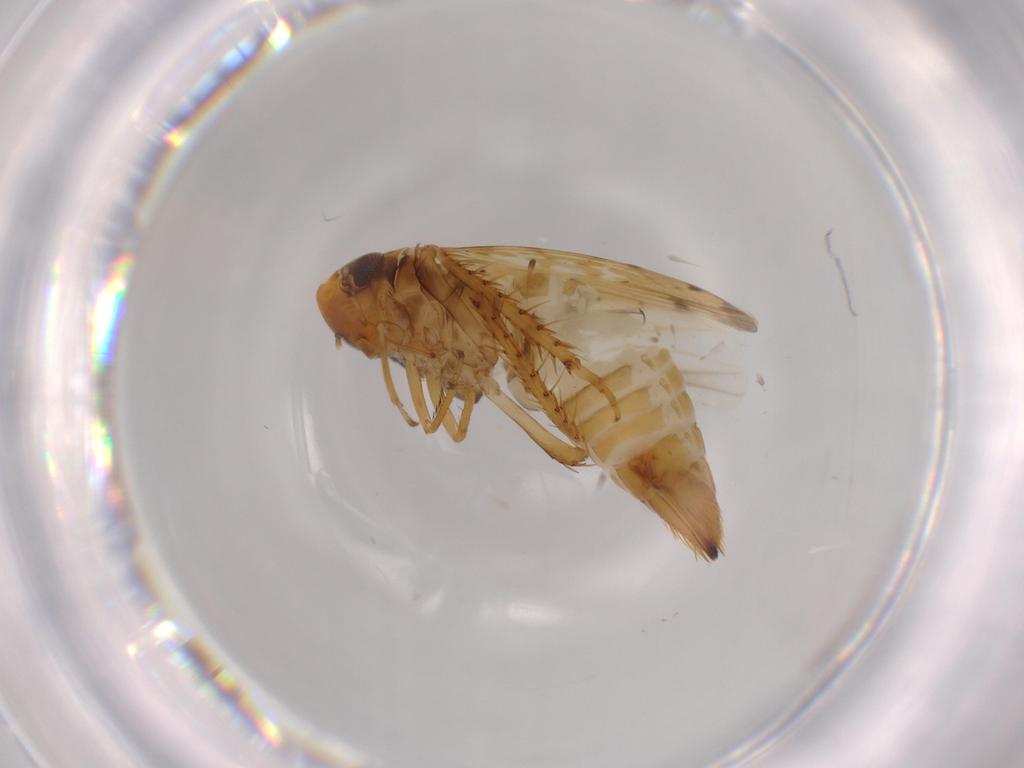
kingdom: Animalia
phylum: Arthropoda
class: Insecta
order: Hemiptera
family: Cicadellidae
